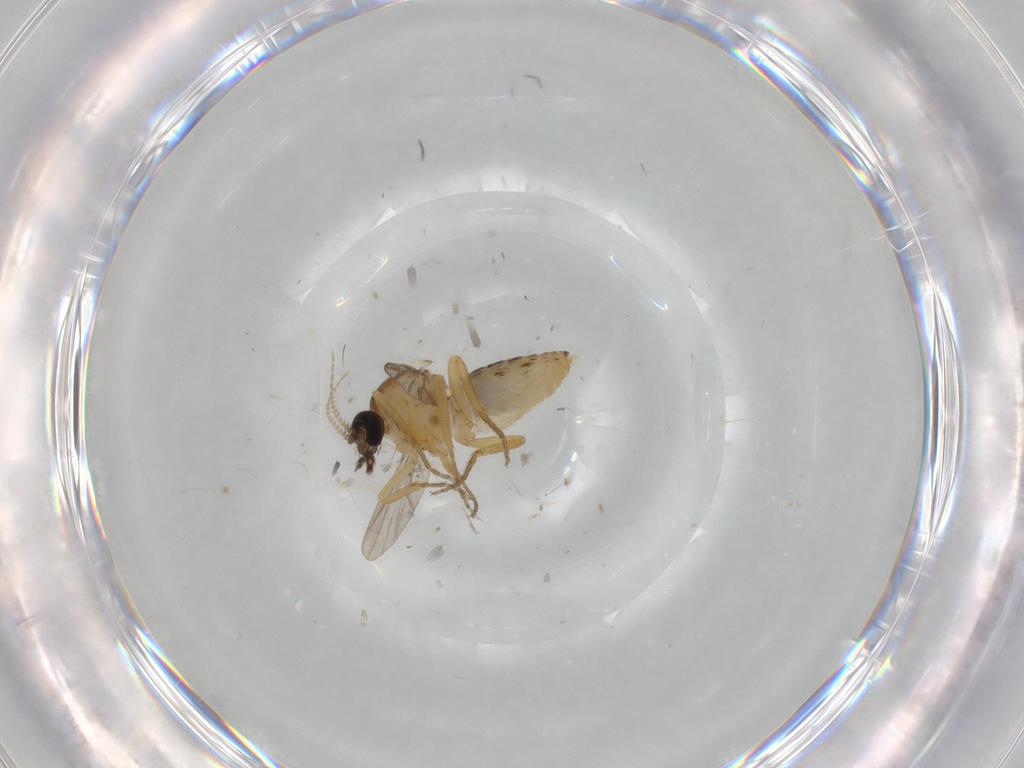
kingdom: Animalia
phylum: Arthropoda
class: Insecta
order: Diptera
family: Ceratopogonidae
